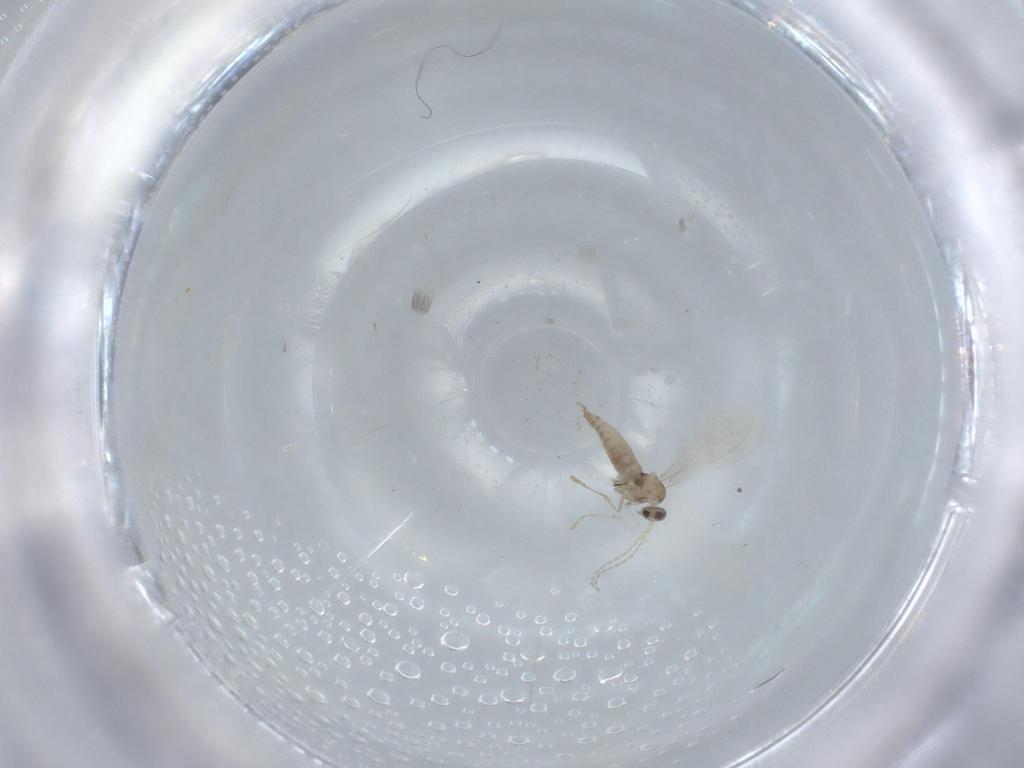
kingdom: Animalia
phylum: Arthropoda
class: Insecta
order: Diptera
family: Cecidomyiidae
